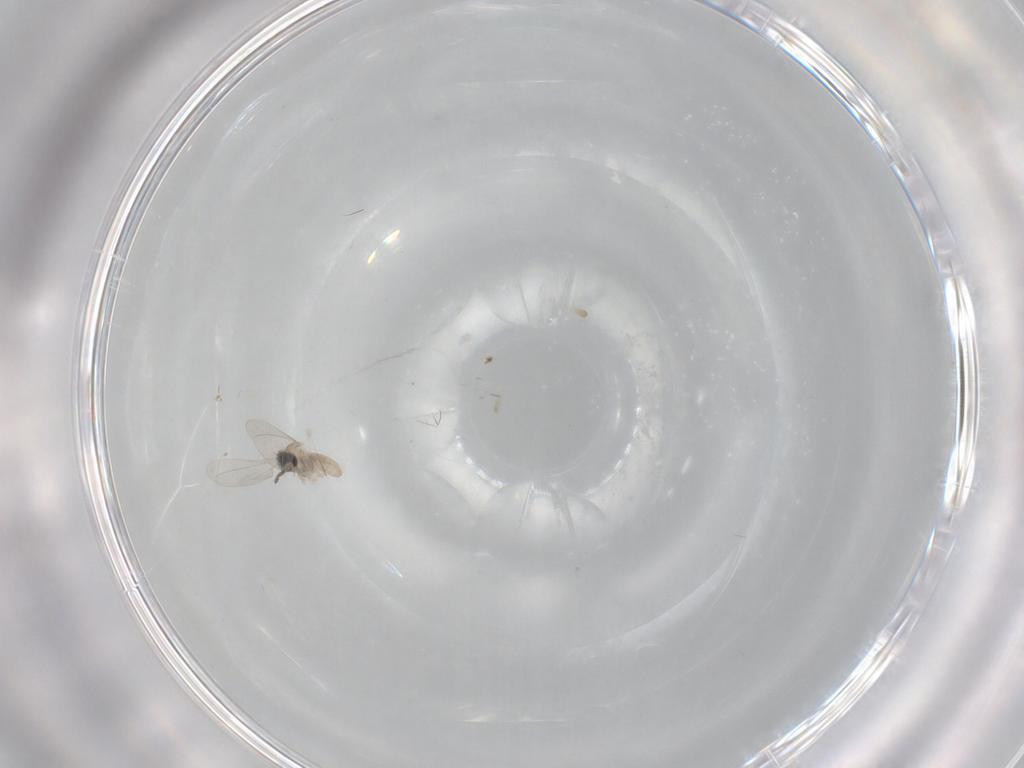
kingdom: Animalia
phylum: Arthropoda
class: Insecta
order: Diptera
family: Cecidomyiidae
